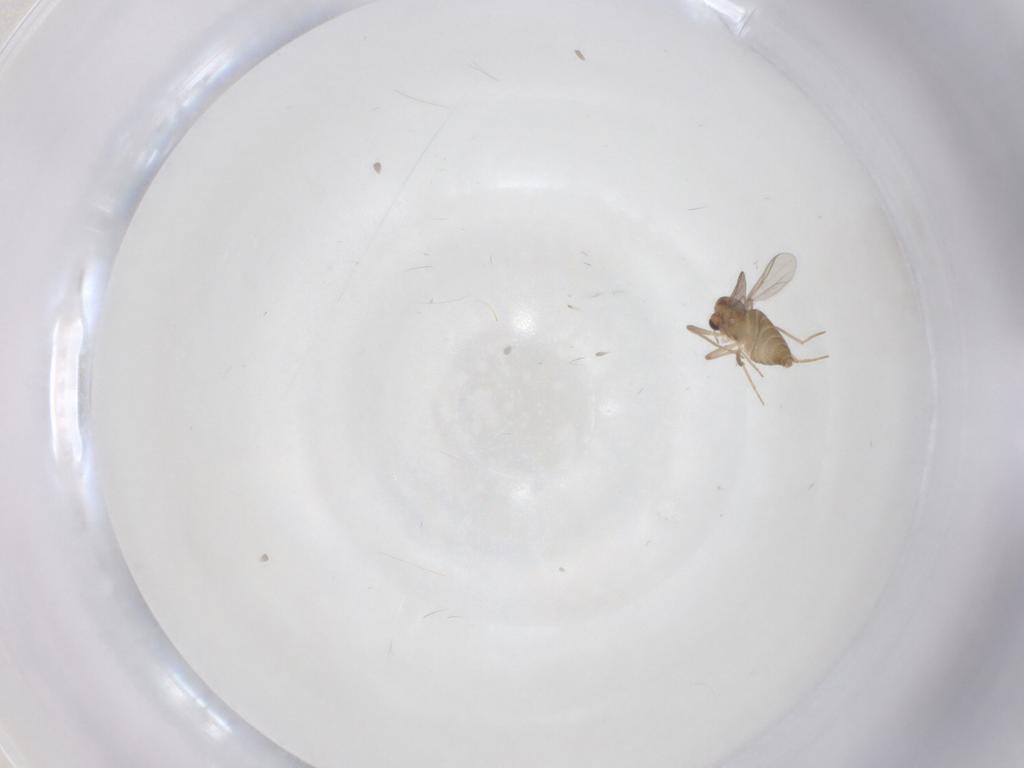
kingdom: Animalia
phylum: Arthropoda
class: Insecta
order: Diptera
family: Chironomidae
